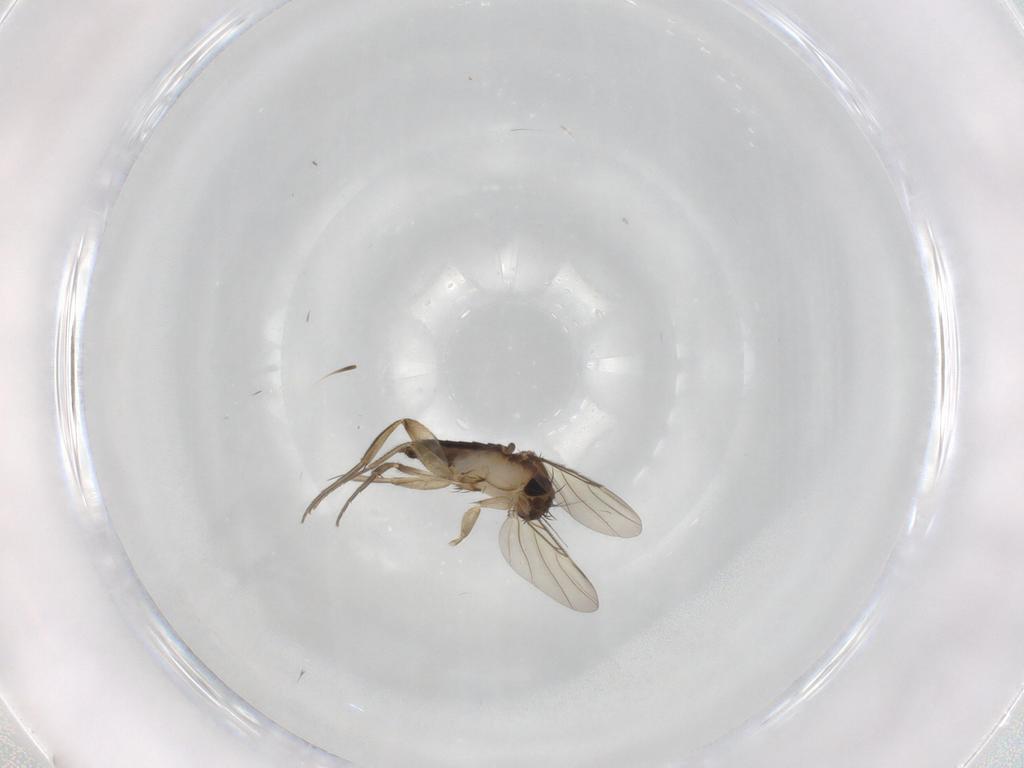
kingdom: Animalia
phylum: Arthropoda
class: Insecta
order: Diptera
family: Phoridae
